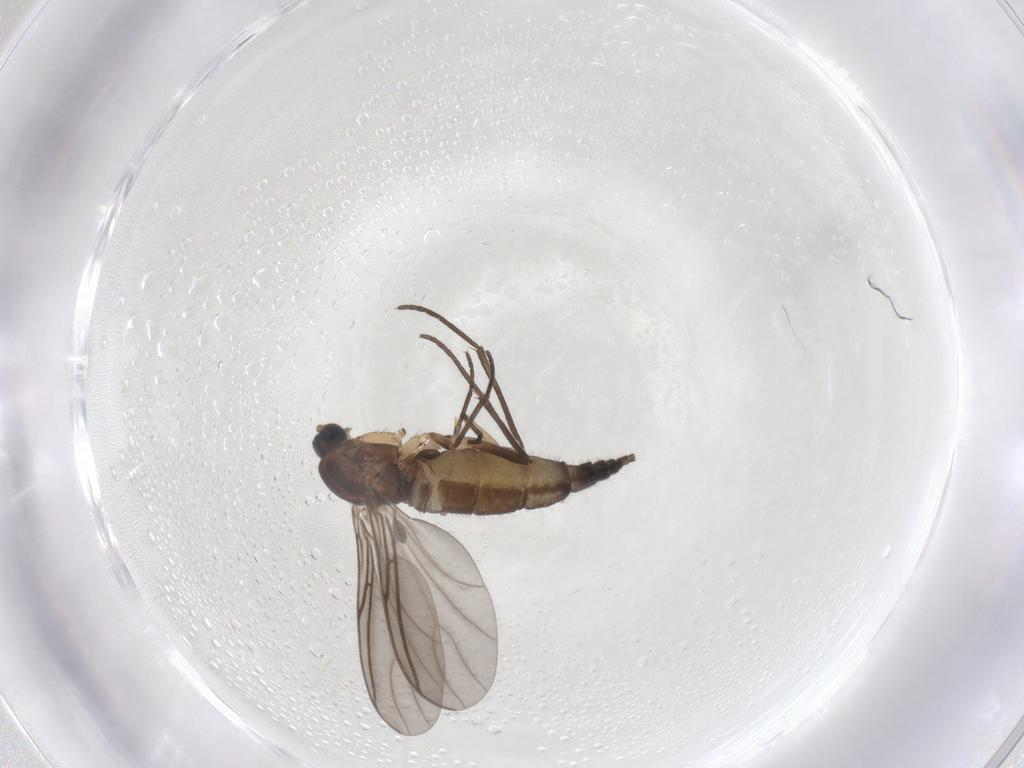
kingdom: Animalia
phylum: Arthropoda
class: Insecta
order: Diptera
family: Sciaridae
